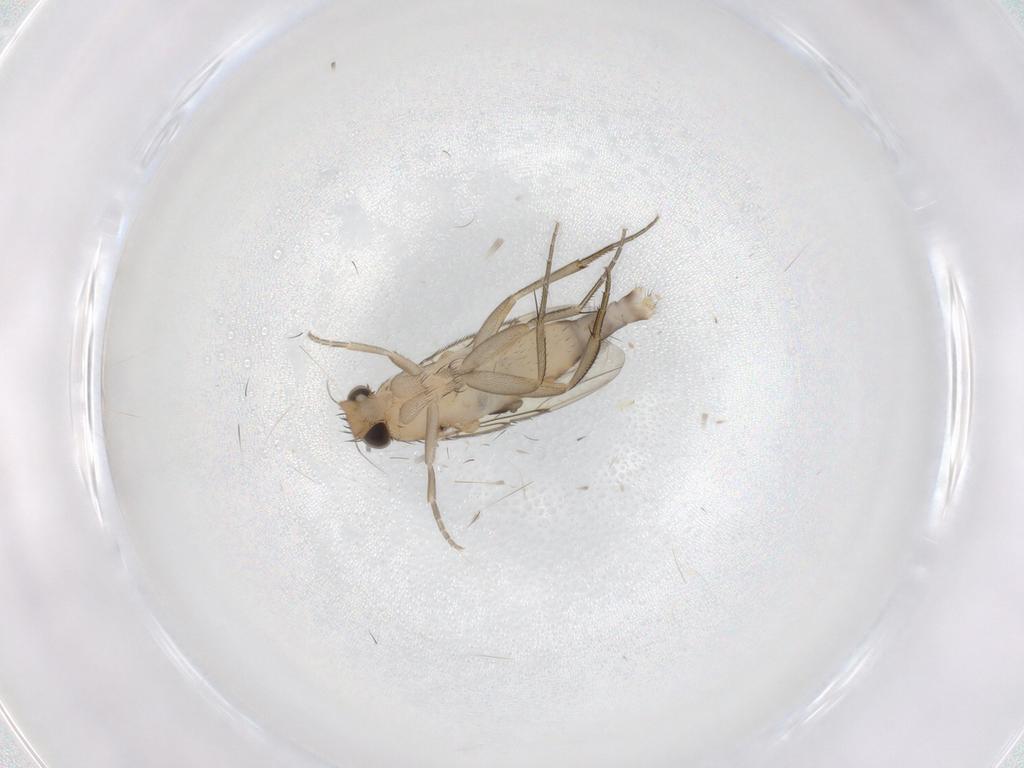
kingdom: Animalia
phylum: Arthropoda
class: Insecta
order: Diptera
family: Phoridae
